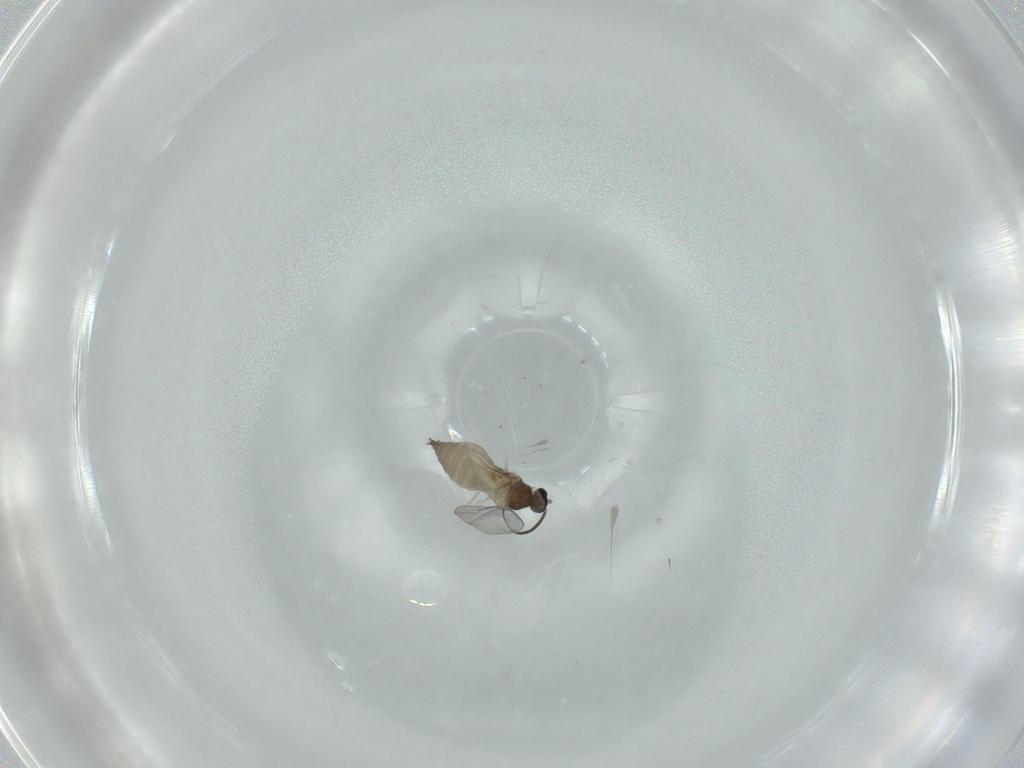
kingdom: Animalia
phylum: Arthropoda
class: Insecta
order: Diptera
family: Cecidomyiidae
